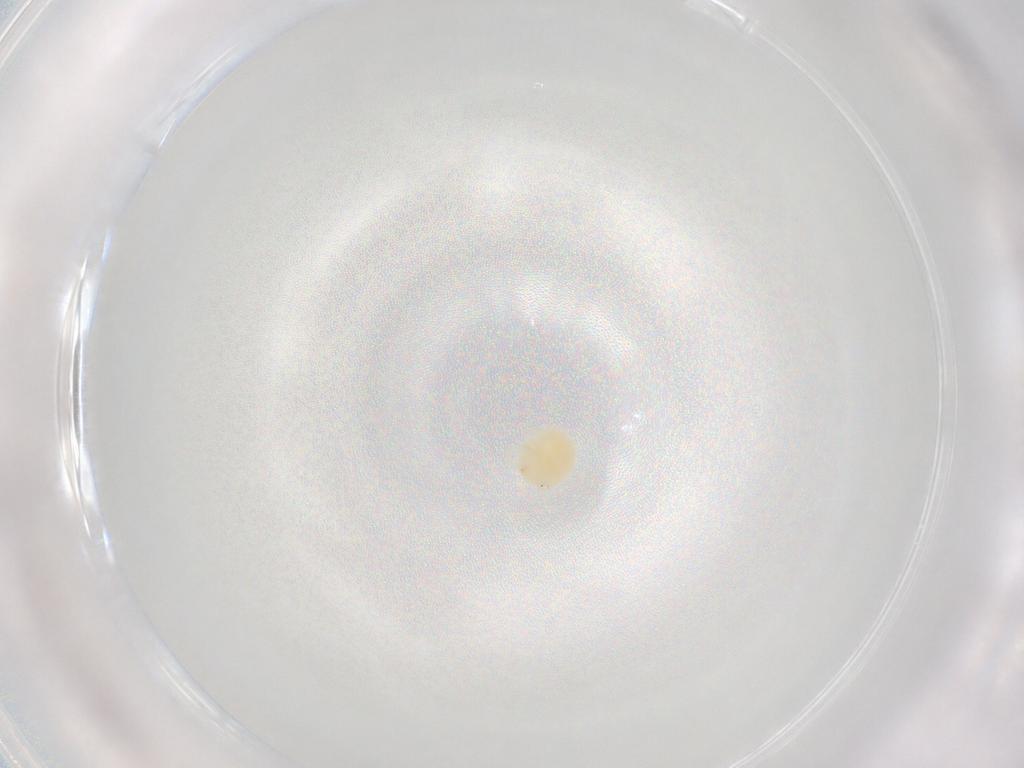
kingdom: Animalia
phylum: Arthropoda
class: Arachnida
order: Trombidiformes
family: Hydryphantidae
